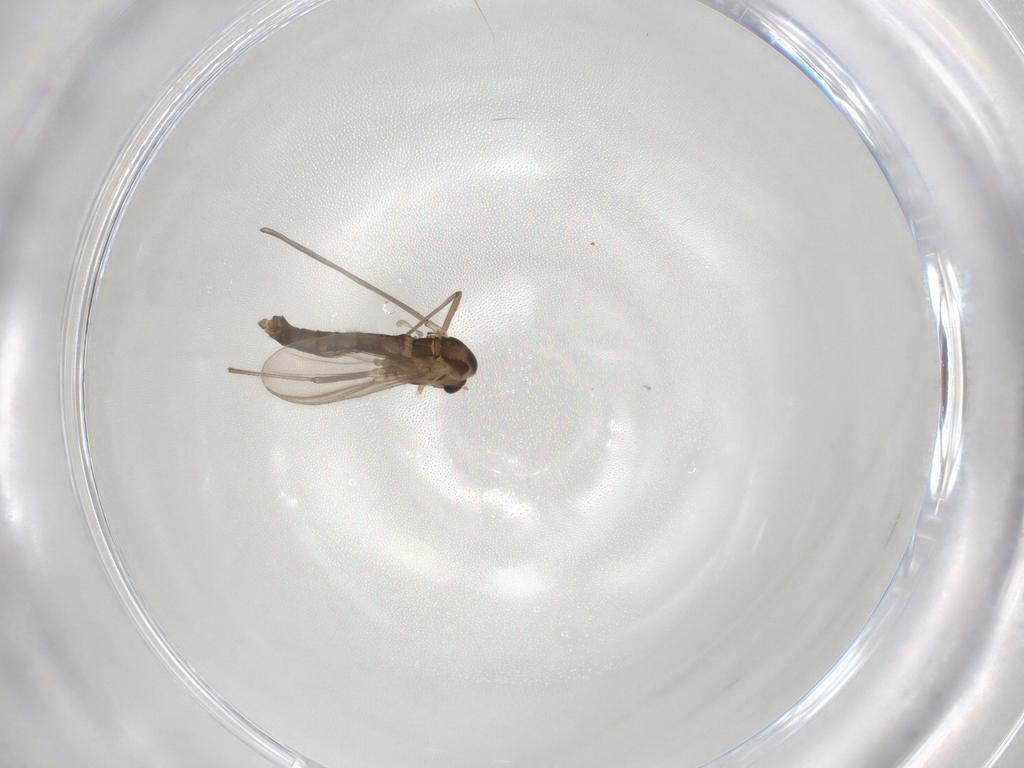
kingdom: Animalia
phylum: Arthropoda
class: Insecta
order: Diptera
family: Chironomidae
